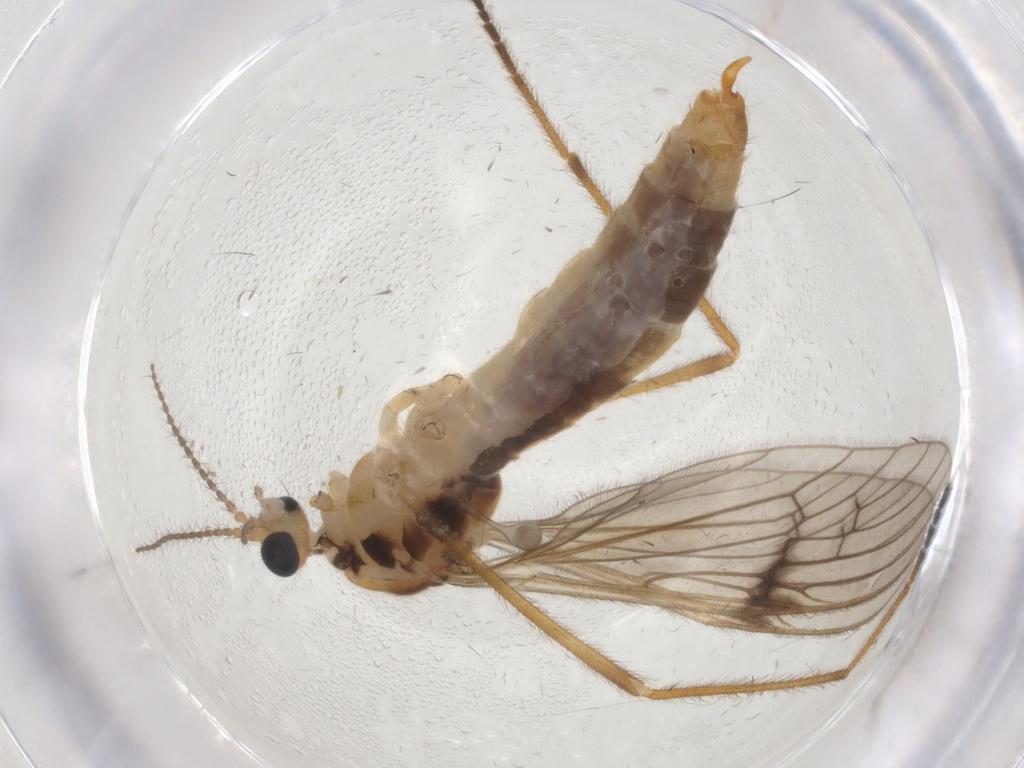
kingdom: Animalia
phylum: Arthropoda
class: Insecta
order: Diptera
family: Limoniidae
